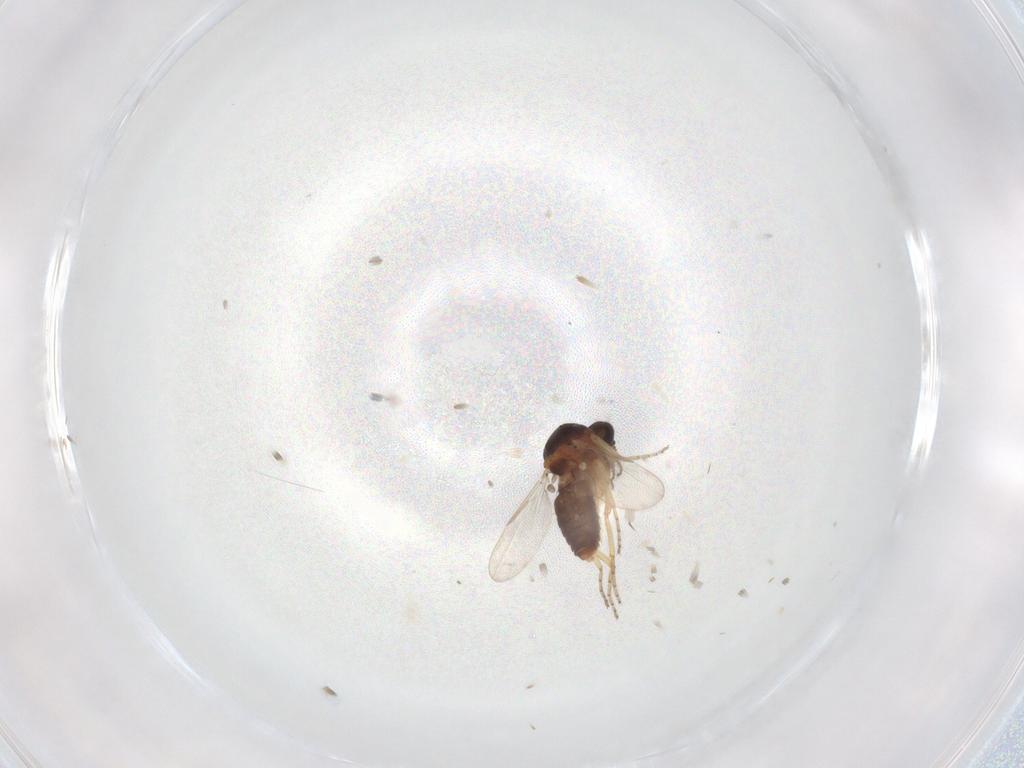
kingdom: Animalia
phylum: Arthropoda
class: Insecta
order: Diptera
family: Ceratopogonidae
